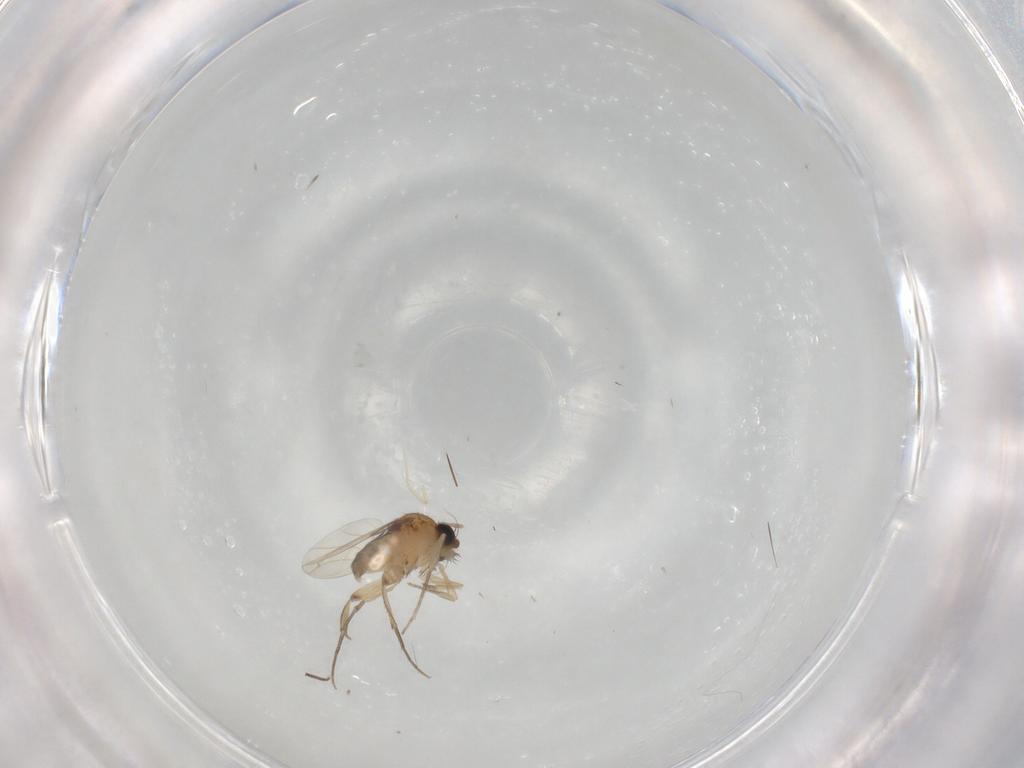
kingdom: Animalia
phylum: Arthropoda
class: Insecta
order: Diptera
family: Phoridae
